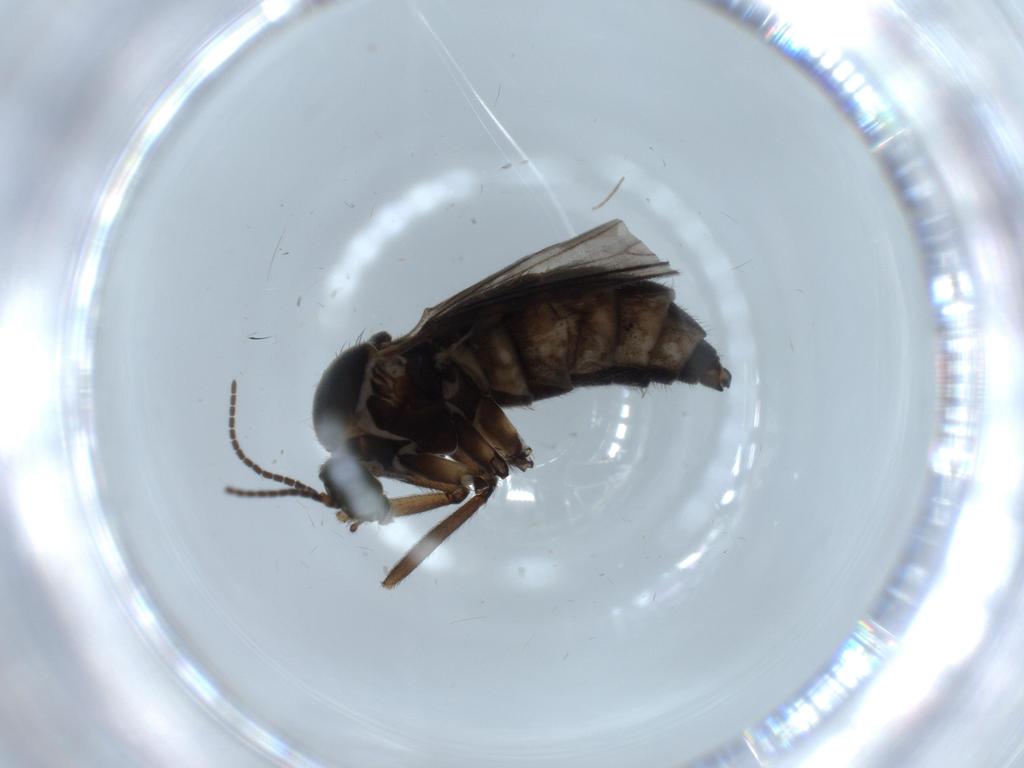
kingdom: Animalia
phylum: Arthropoda
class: Insecta
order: Diptera
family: Sciaridae
